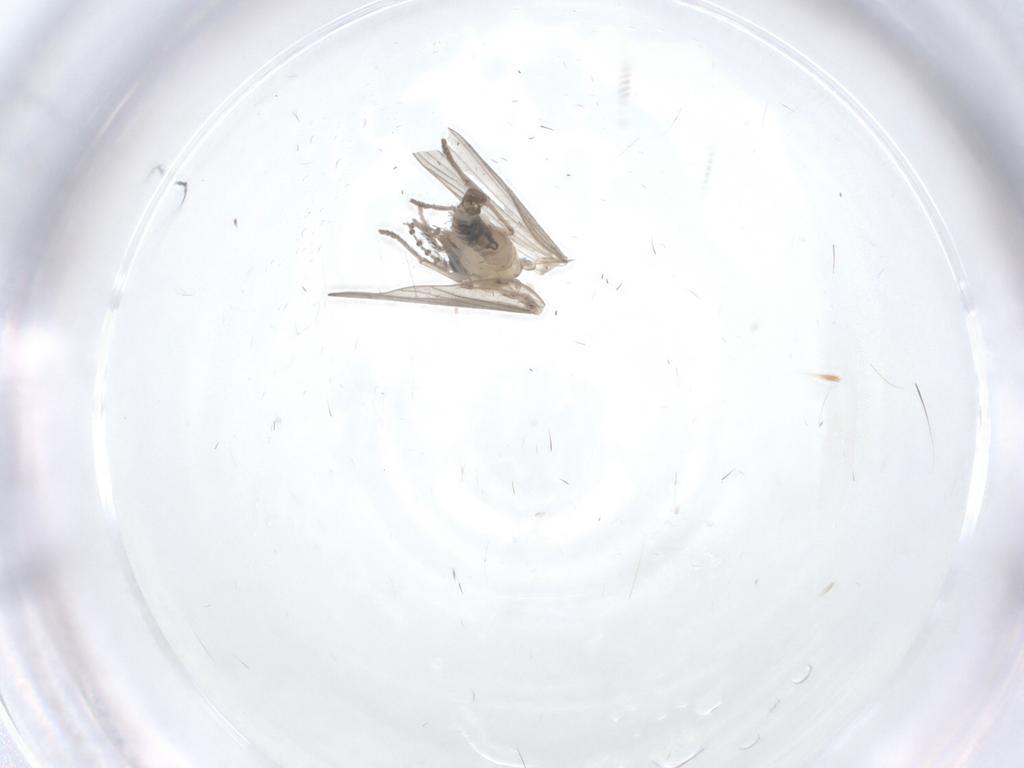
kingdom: Animalia
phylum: Arthropoda
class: Insecta
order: Diptera
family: Psychodidae
